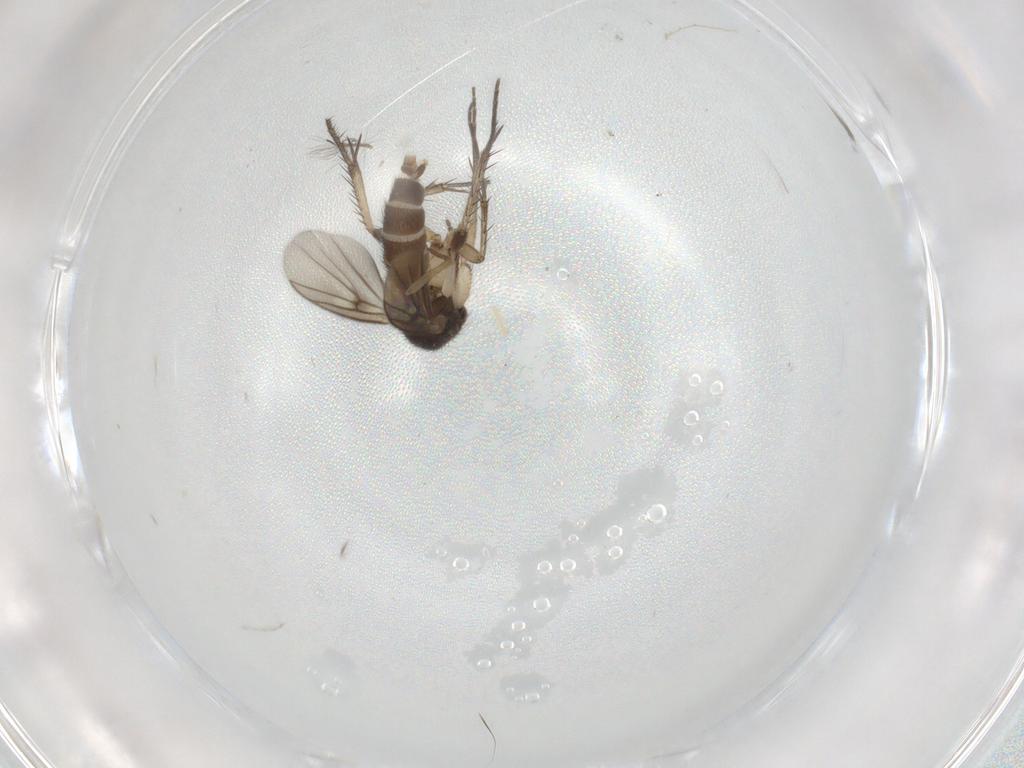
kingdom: Animalia
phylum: Arthropoda
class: Insecta
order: Diptera
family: Mycetophilidae
